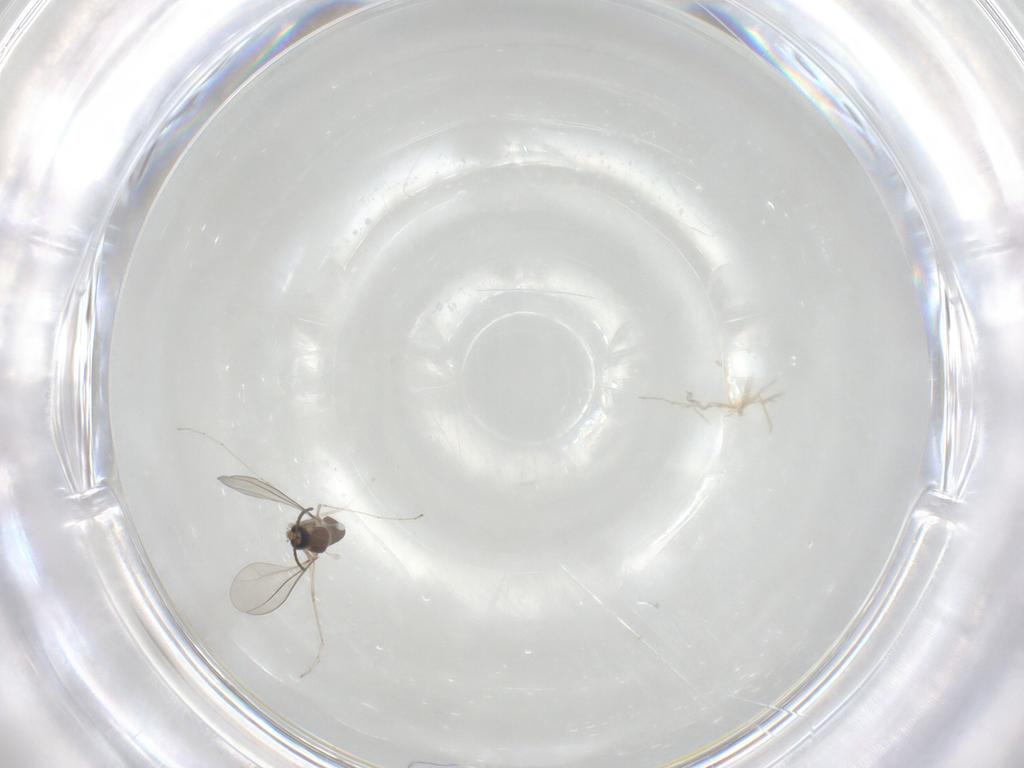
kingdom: Animalia
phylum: Arthropoda
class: Insecta
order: Diptera
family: Cecidomyiidae
